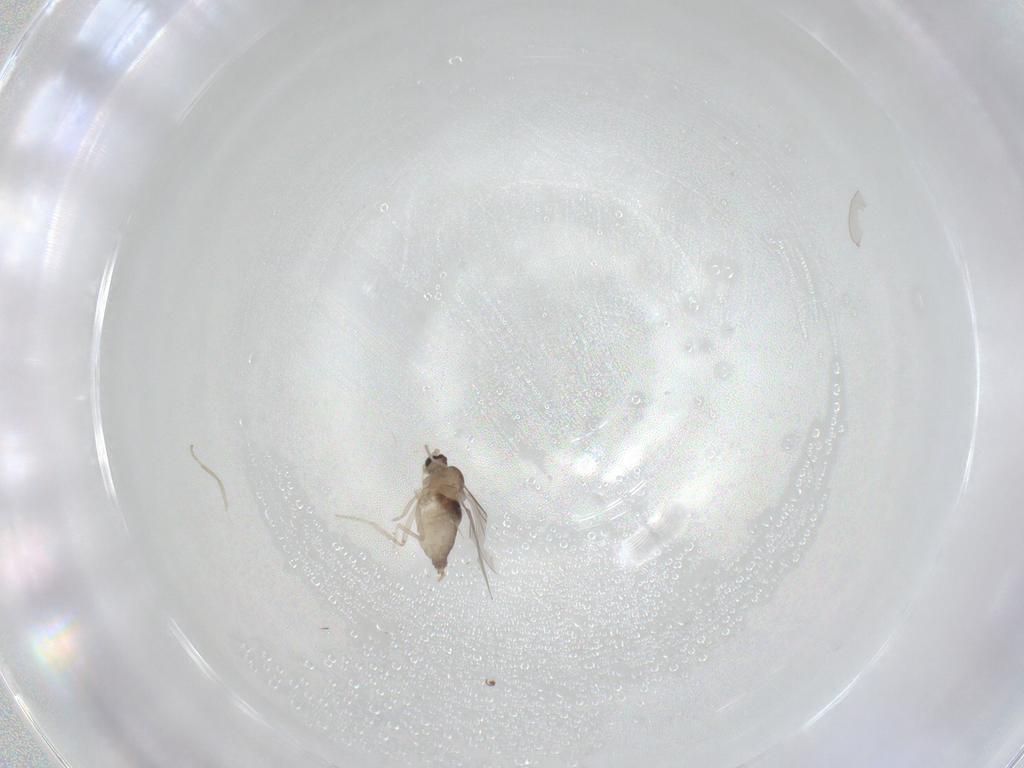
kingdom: Animalia
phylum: Arthropoda
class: Insecta
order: Diptera
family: Cecidomyiidae
